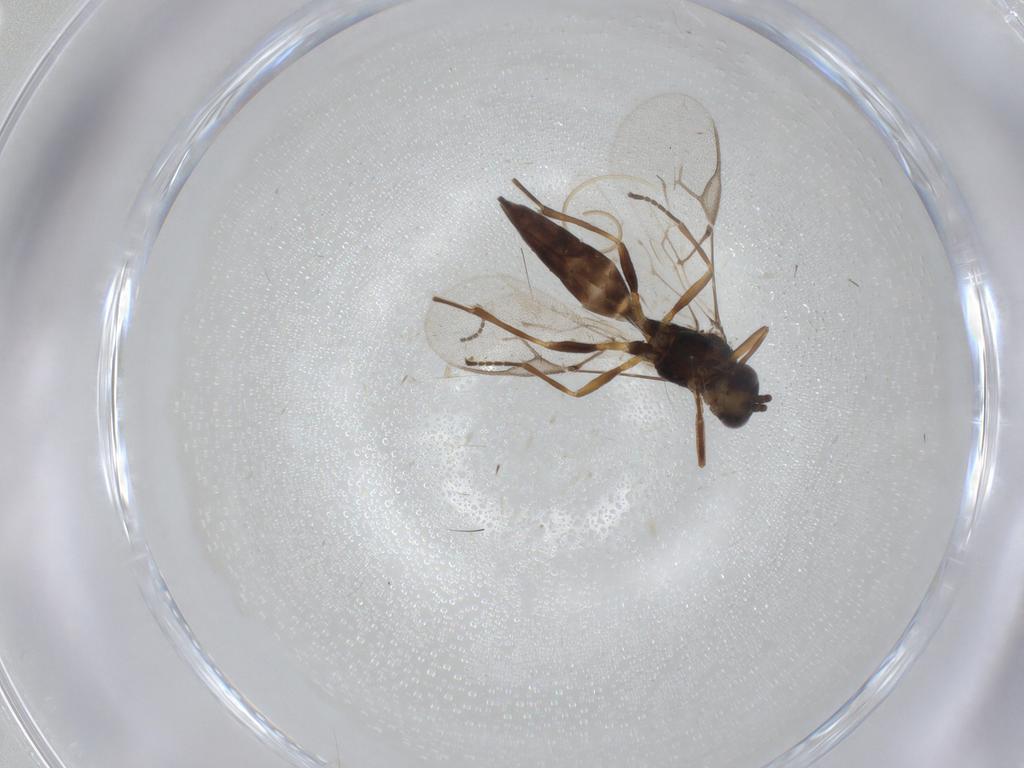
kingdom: Animalia
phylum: Arthropoda
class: Insecta
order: Hymenoptera
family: Braconidae
